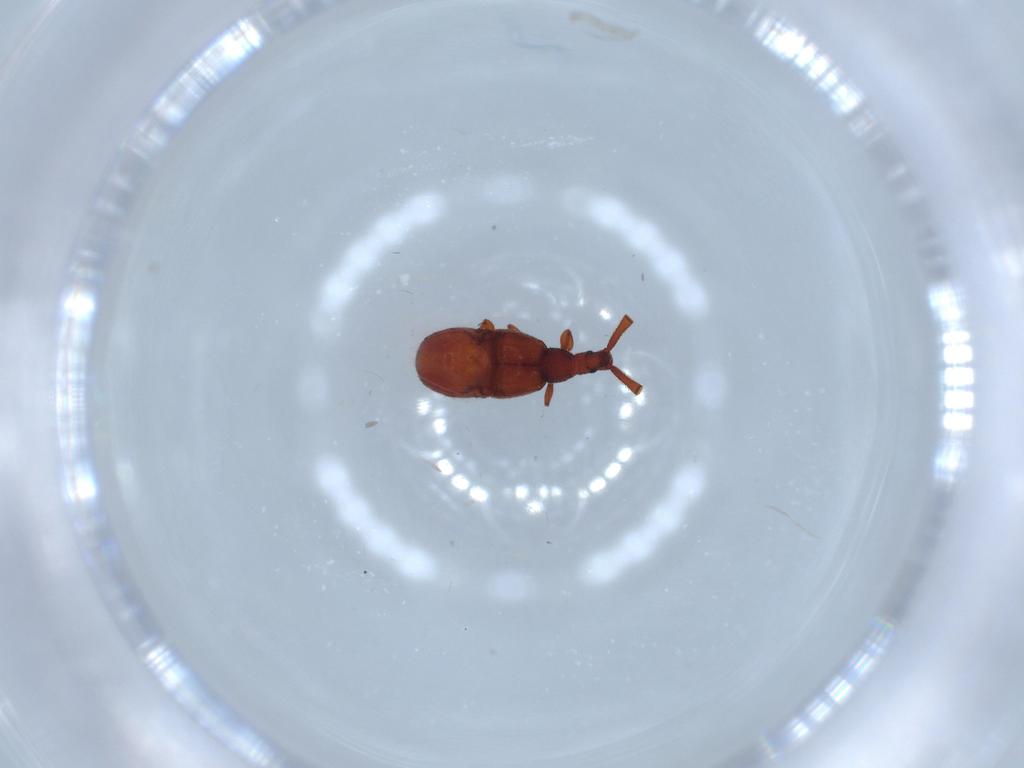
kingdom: Animalia
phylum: Arthropoda
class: Insecta
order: Coleoptera
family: Staphylinidae
